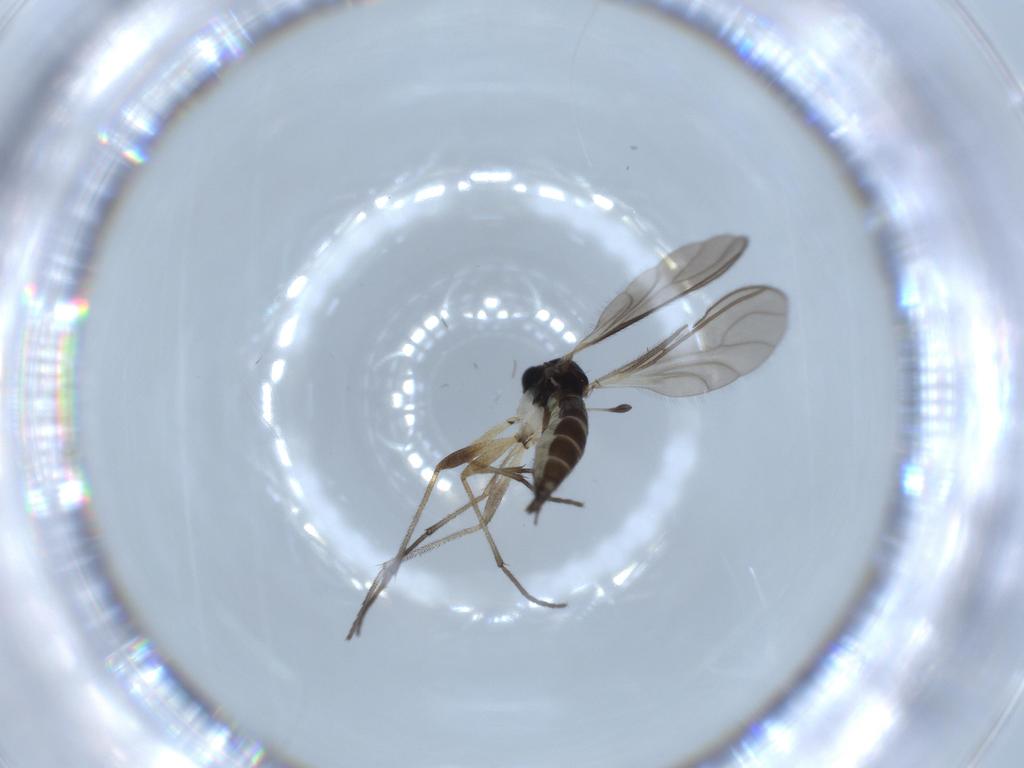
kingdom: Animalia
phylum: Arthropoda
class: Insecta
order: Diptera
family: Sciaridae
